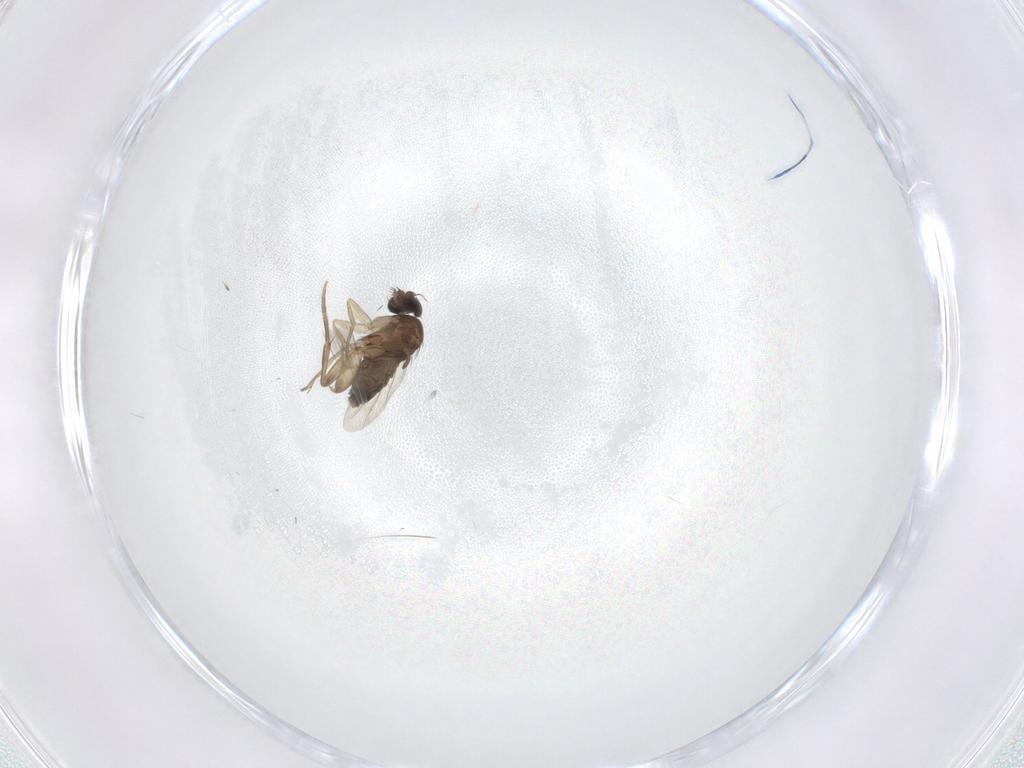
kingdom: Animalia
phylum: Arthropoda
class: Insecta
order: Diptera
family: Phoridae
